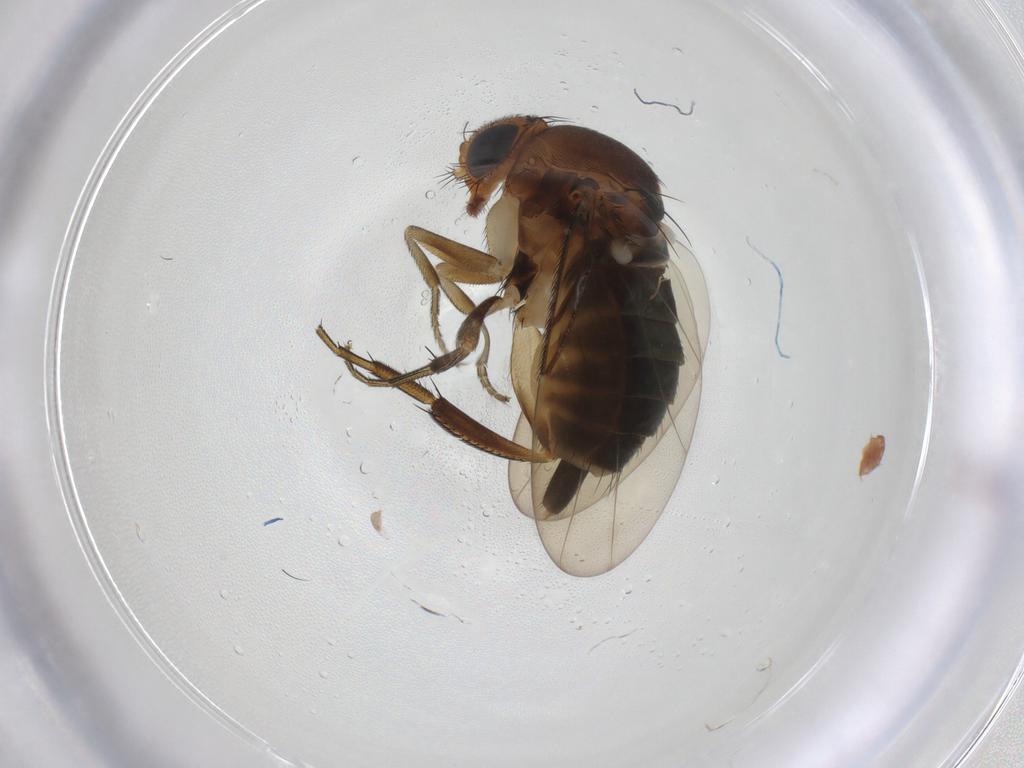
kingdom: Animalia
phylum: Arthropoda
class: Insecta
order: Diptera
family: Phoridae
